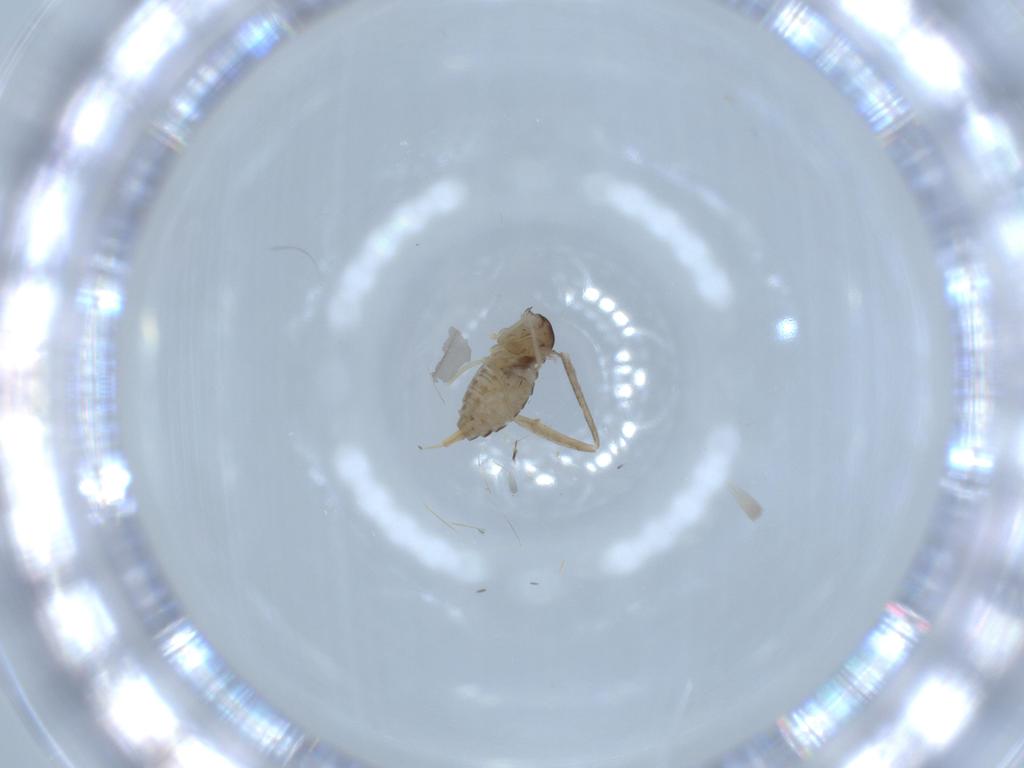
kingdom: Animalia
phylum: Arthropoda
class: Insecta
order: Diptera
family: Cecidomyiidae
